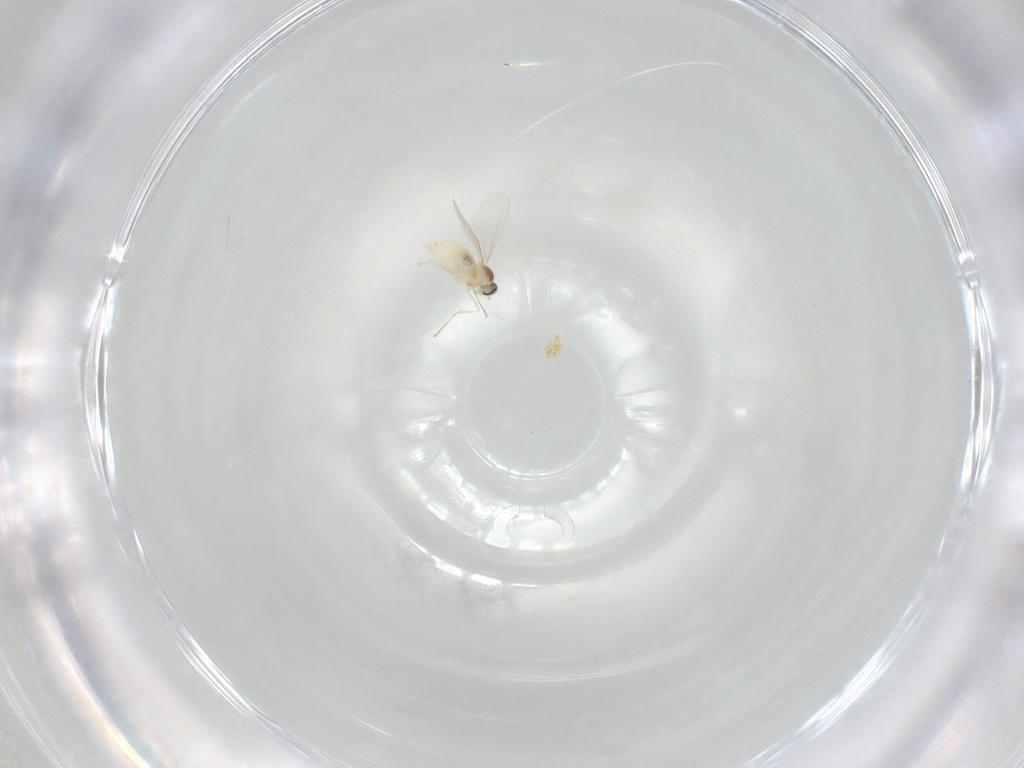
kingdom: Animalia
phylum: Arthropoda
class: Insecta
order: Diptera
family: Cecidomyiidae
